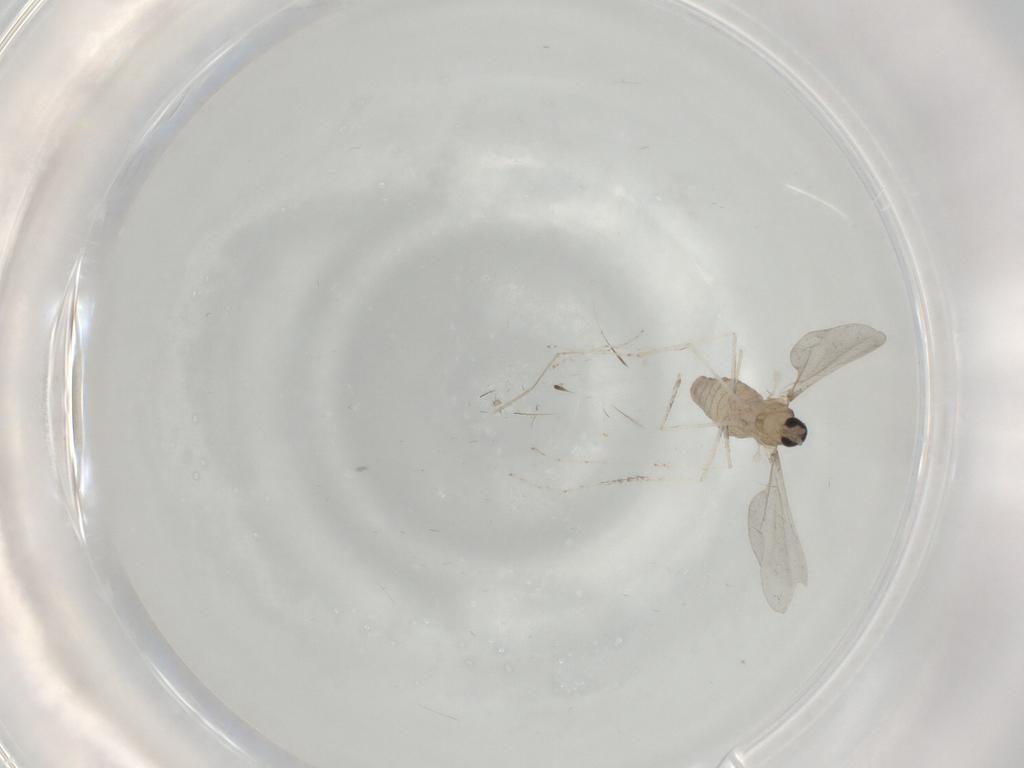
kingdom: Animalia
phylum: Arthropoda
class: Insecta
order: Diptera
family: Cecidomyiidae
